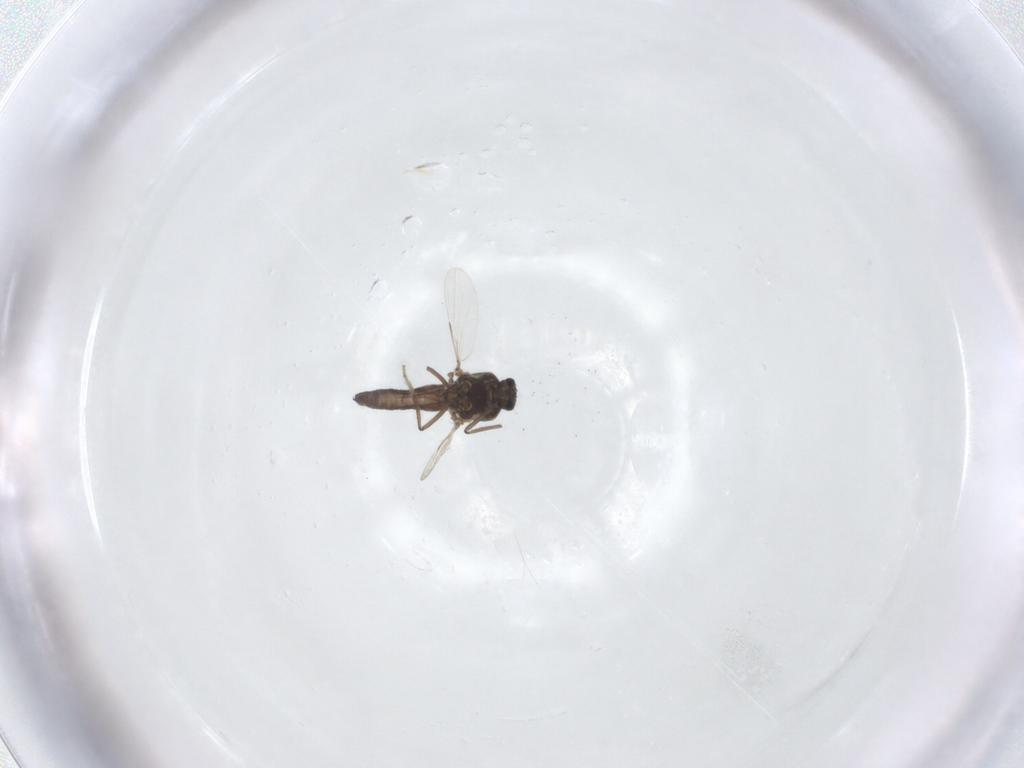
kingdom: Animalia
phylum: Arthropoda
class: Insecta
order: Diptera
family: Ceratopogonidae
